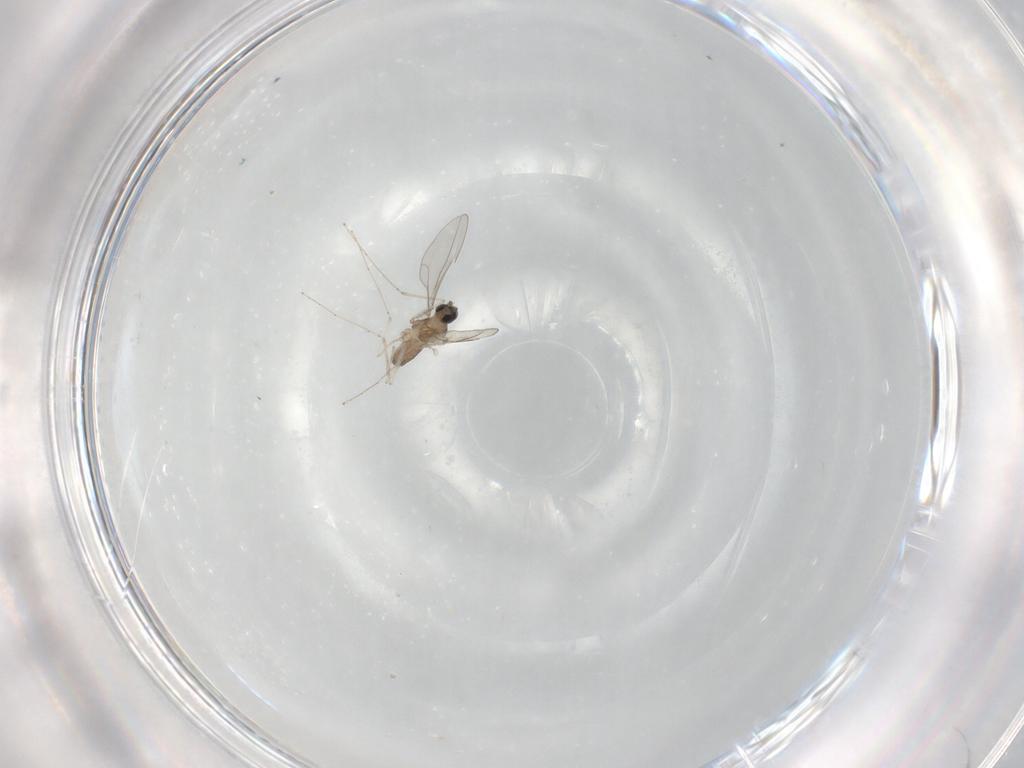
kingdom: Animalia
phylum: Arthropoda
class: Insecta
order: Diptera
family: Cecidomyiidae
